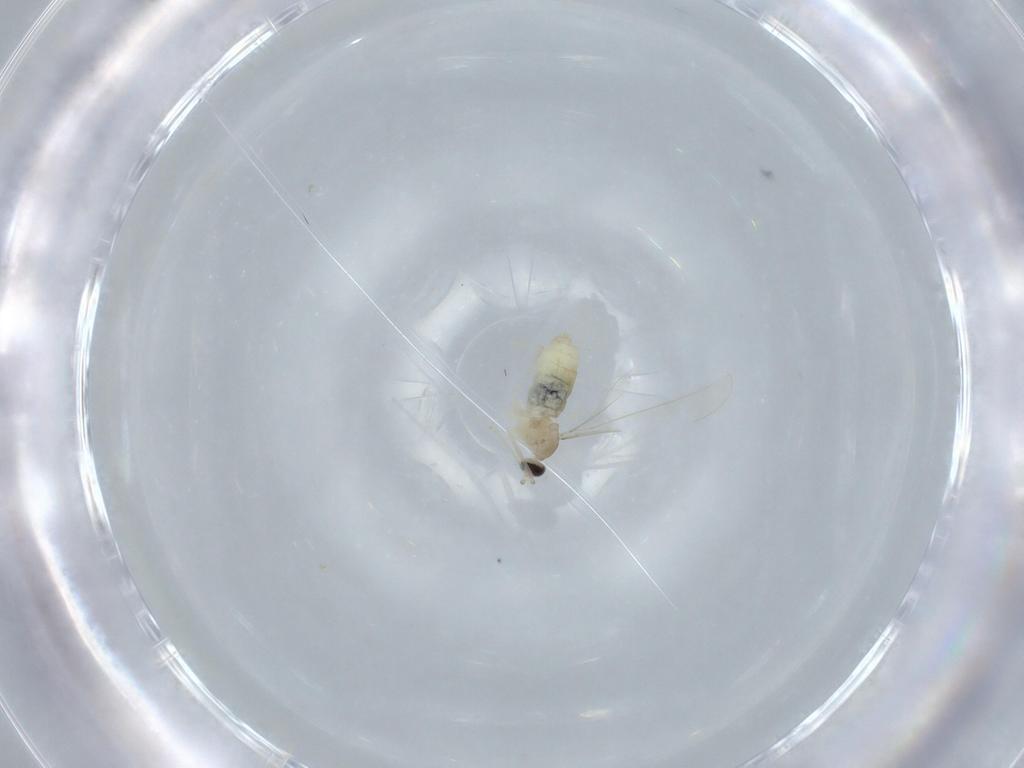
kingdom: Animalia
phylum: Arthropoda
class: Insecta
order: Diptera
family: Cecidomyiidae
